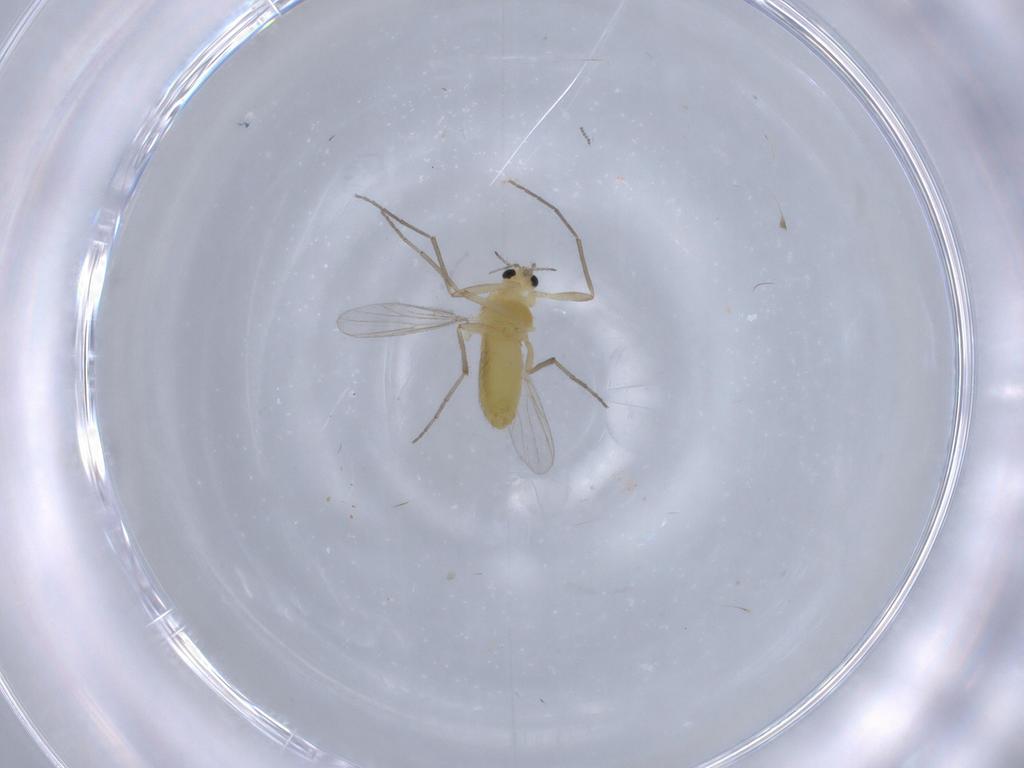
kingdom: Animalia
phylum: Arthropoda
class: Insecta
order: Diptera
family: Chironomidae
